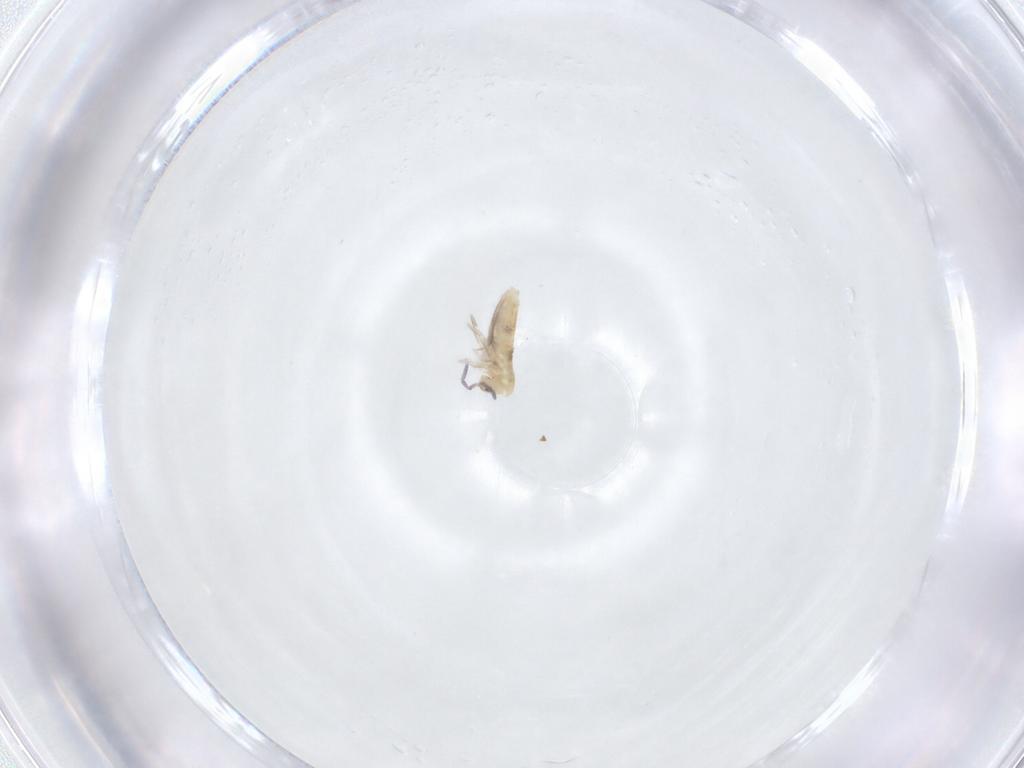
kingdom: Animalia
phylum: Arthropoda
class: Collembola
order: Entomobryomorpha
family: Entomobryidae
